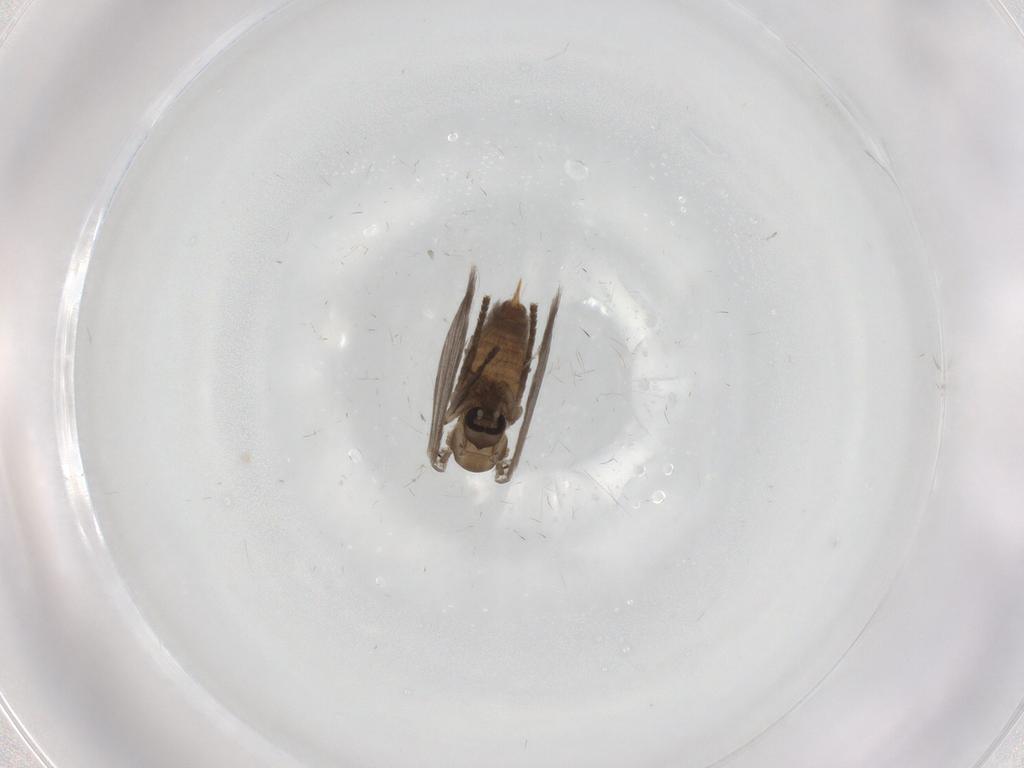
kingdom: Animalia
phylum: Arthropoda
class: Insecta
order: Diptera
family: Psychodidae
